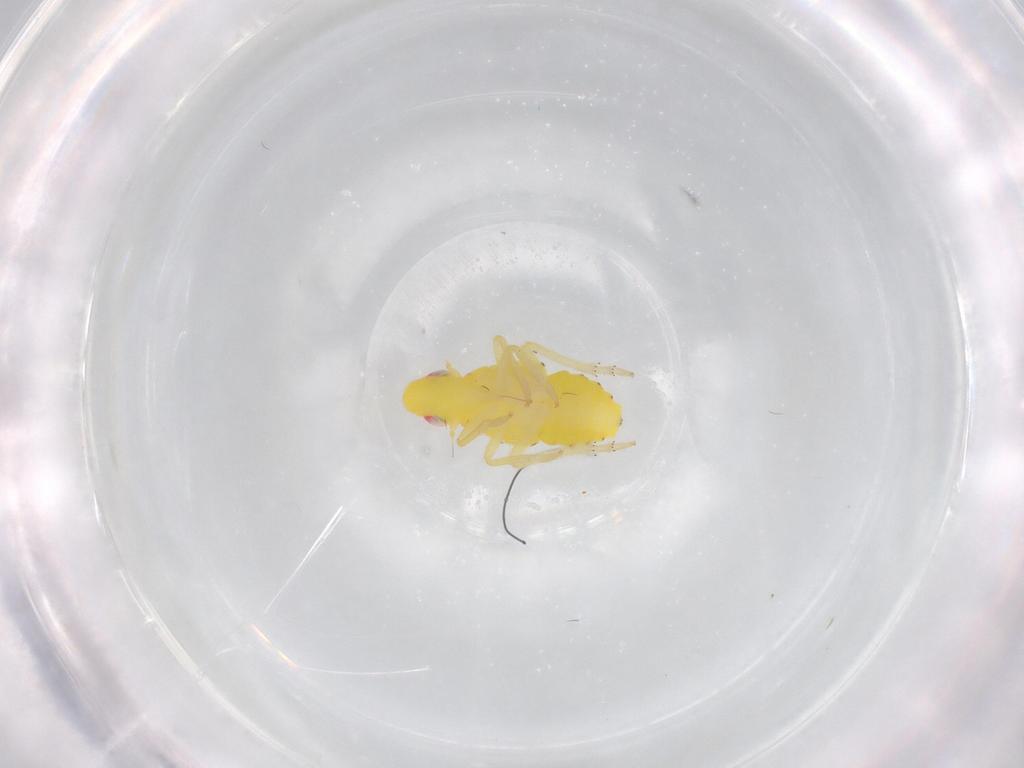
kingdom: Animalia
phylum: Arthropoda
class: Insecta
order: Hemiptera
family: Tropiduchidae
